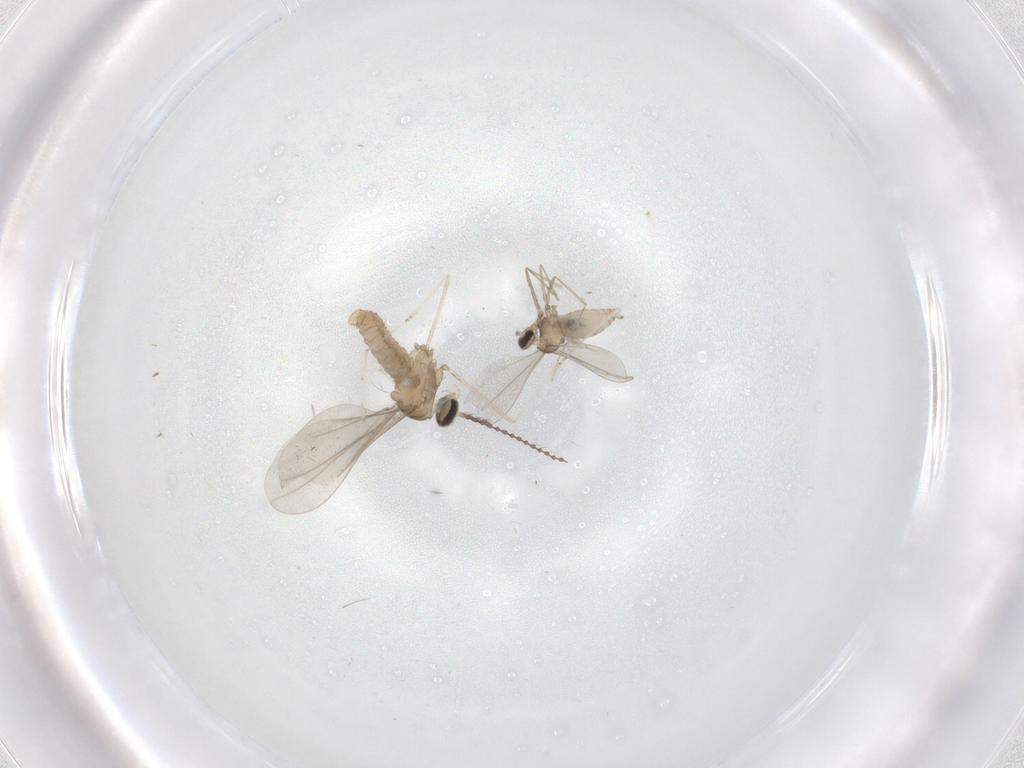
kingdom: Animalia
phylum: Arthropoda
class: Insecta
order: Diptera
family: Cecidomyiidae
